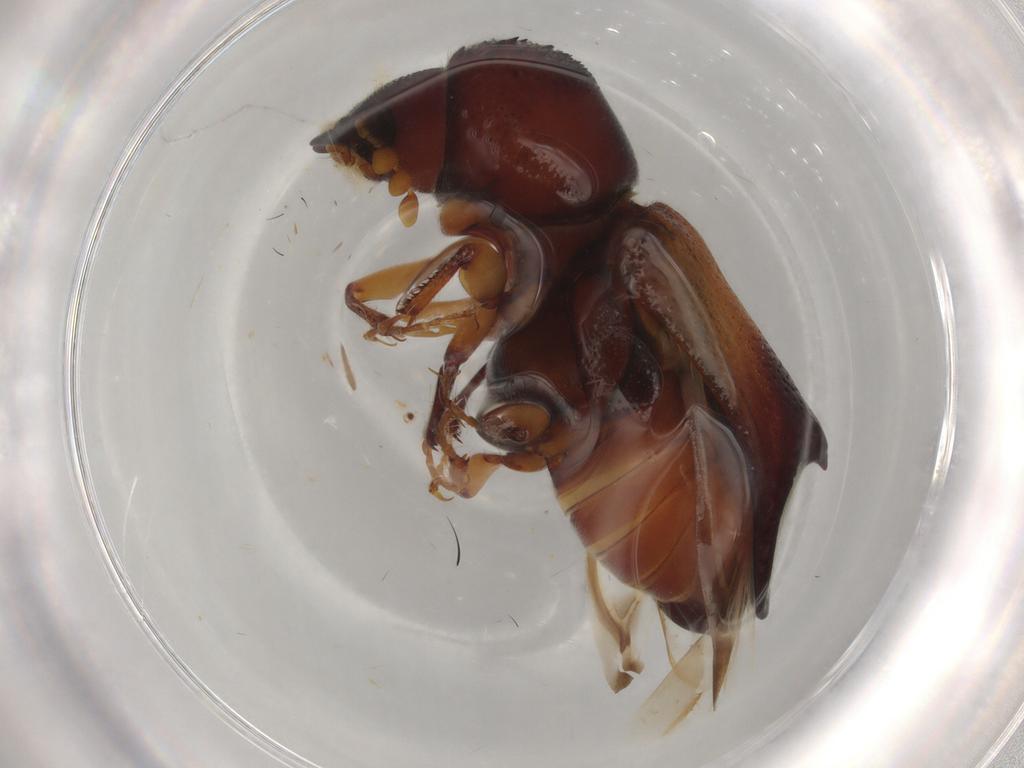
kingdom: Animalia
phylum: Arthropoda
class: Insecta
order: Coleoptera
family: Bostrichidae
